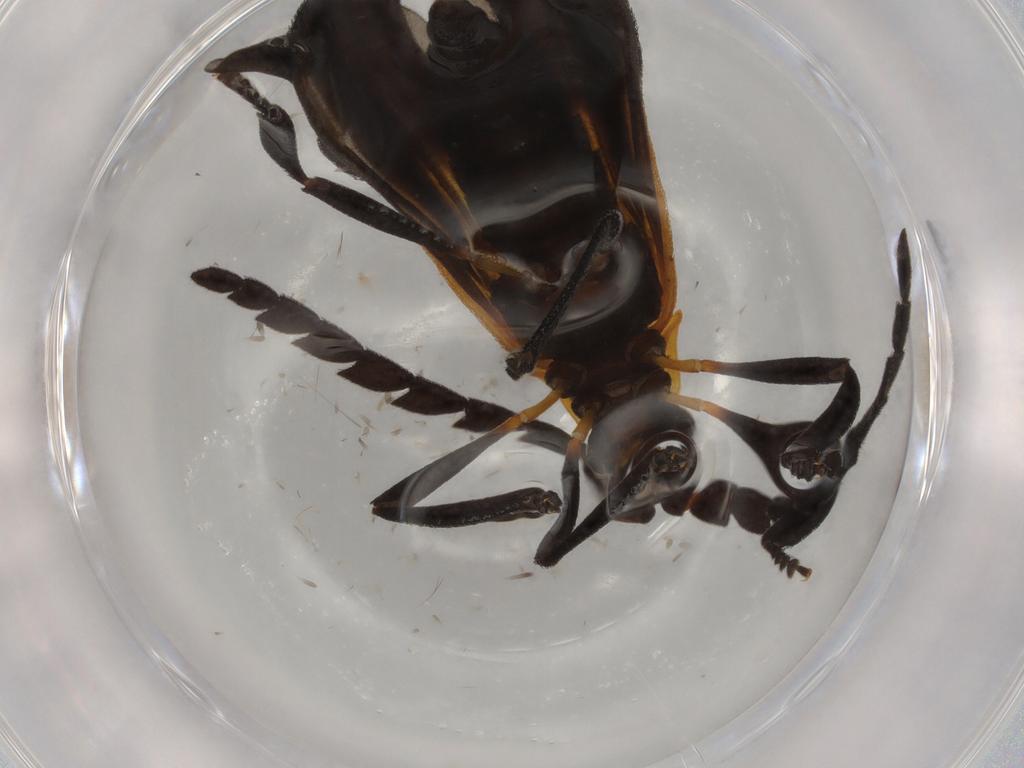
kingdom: Animalia
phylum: Arthropoda
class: Insecta
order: Coleoptera
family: Lycidae
